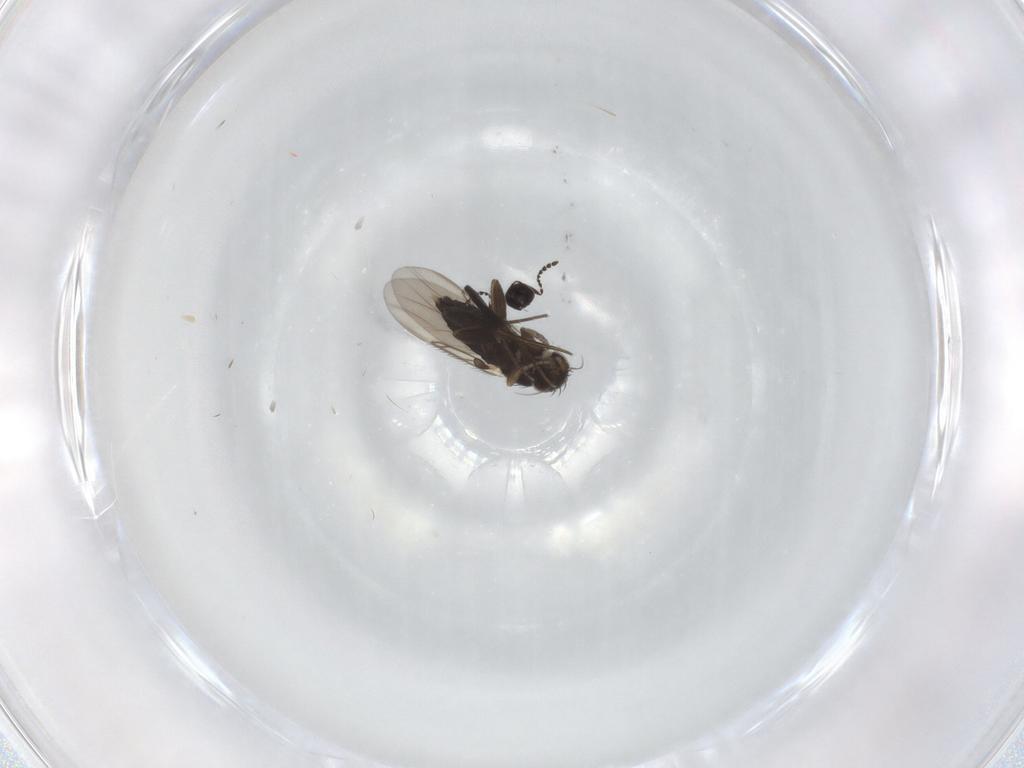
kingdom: Animalia
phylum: Arthropoda
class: Insecta
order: Diptera
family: Phoridae
